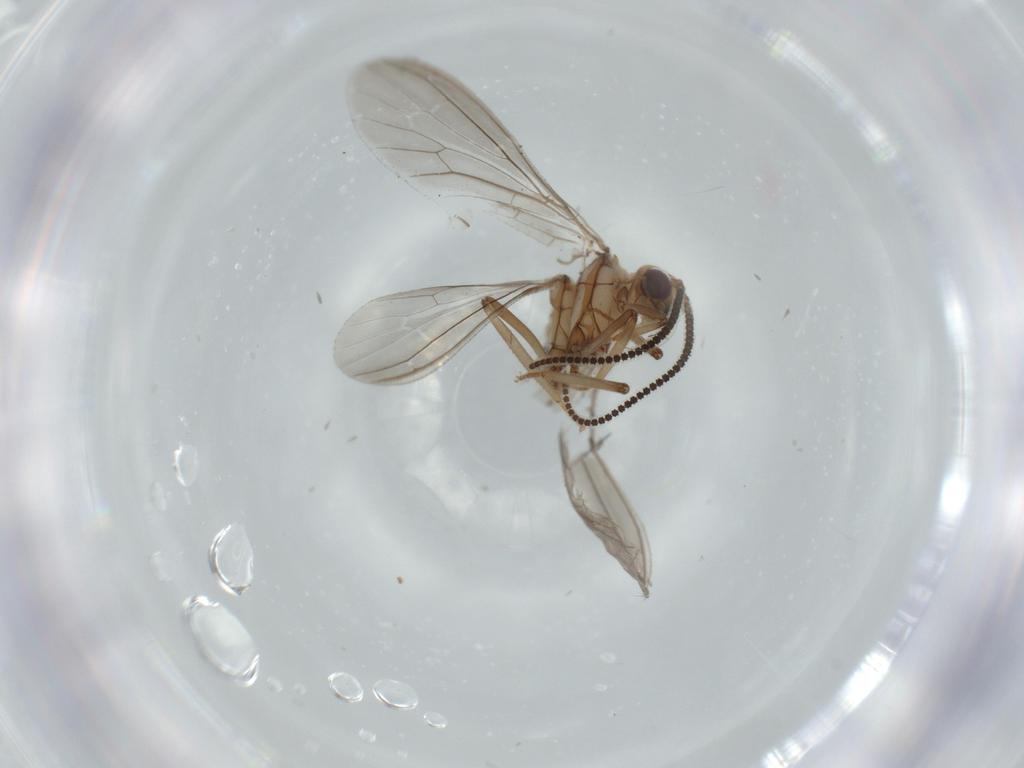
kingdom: Animalia
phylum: Arthropoda
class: Insecta
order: Neuroptera
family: Coniopterygidae
